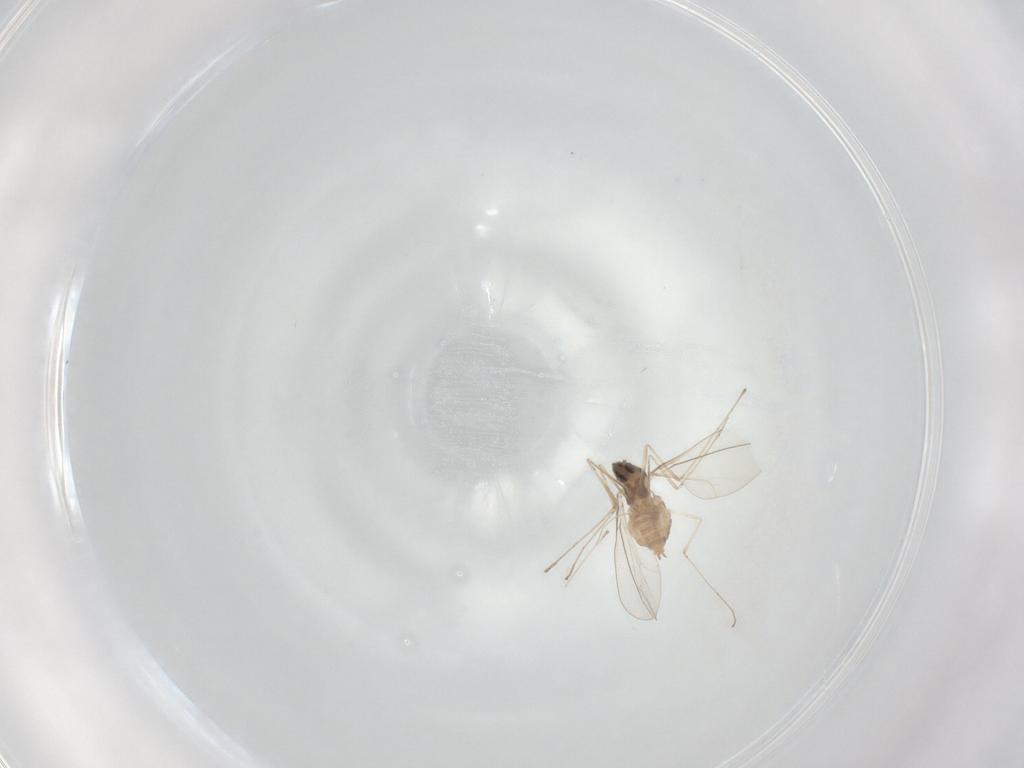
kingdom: Animalia
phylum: Arthropoda
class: Insecta
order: Diptera
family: Cecidomyiidae
